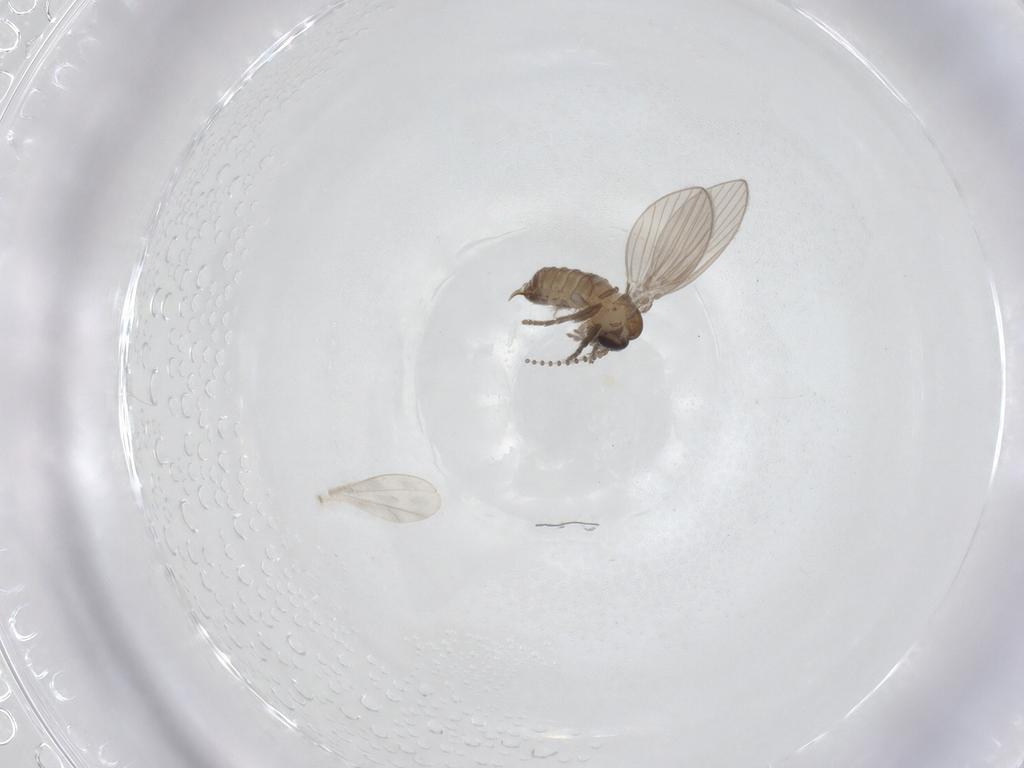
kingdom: Animalia
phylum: Arthropoda
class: Insecta
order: Diptera
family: Psychodidae
